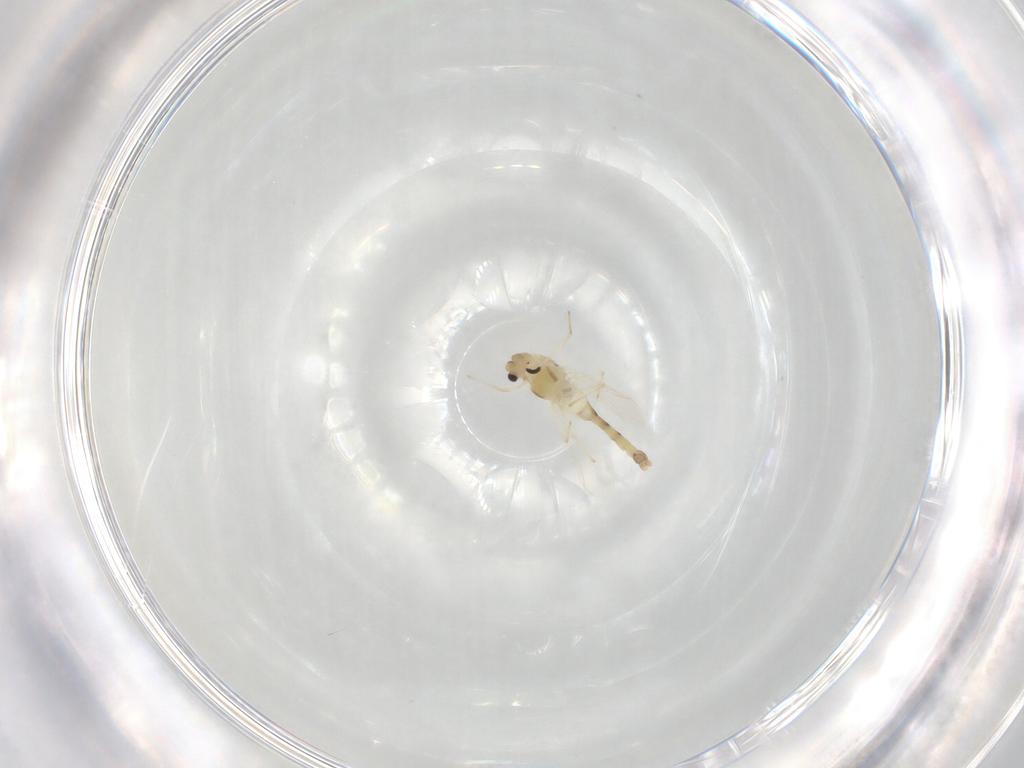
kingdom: Animalia
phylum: Arthropoda
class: Insecta
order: Diptera
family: Chironomidae
